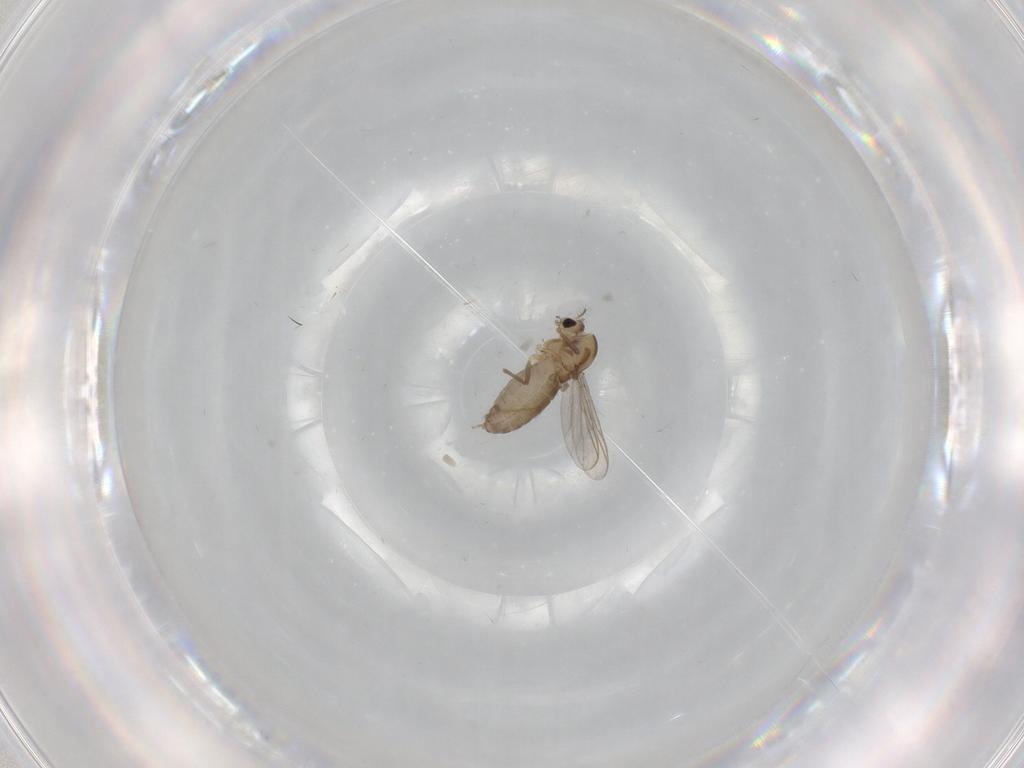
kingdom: Animalia
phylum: Arthropoda
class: Insecta
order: Diptera
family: Chironomidae
